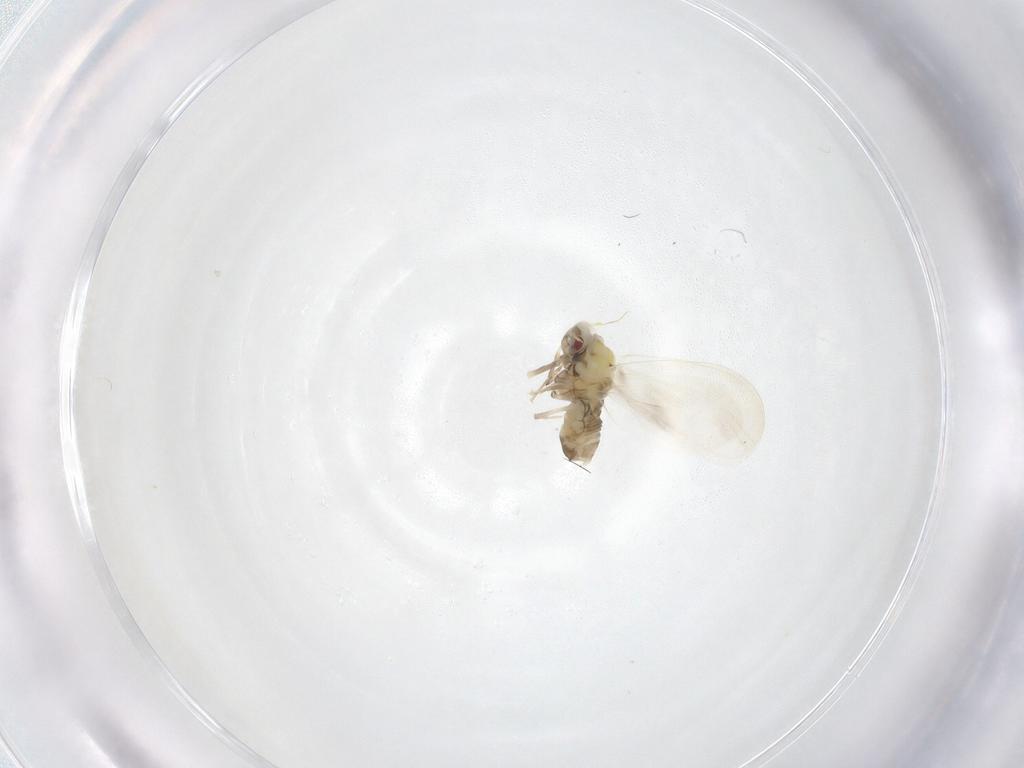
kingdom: Animalia
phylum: Arthropoda
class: Insecta
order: Hemiptera
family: Aleyrodidae
